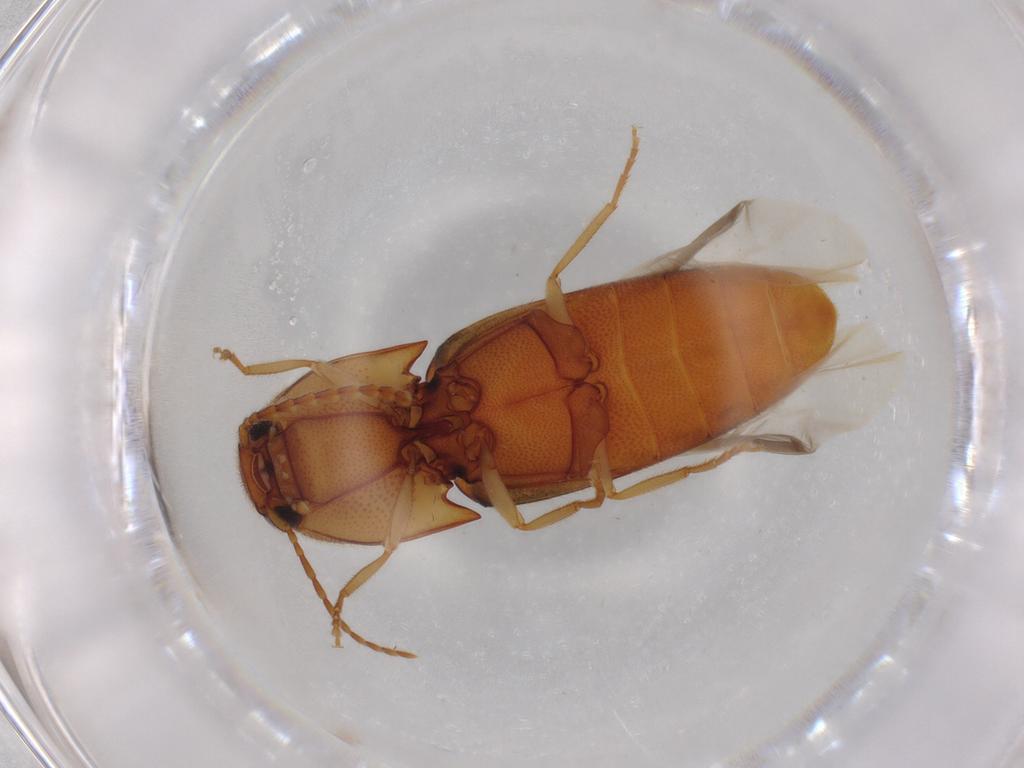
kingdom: Animalia
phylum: Arthropoda
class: Insecta
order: Coleoptera
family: Elateridae
